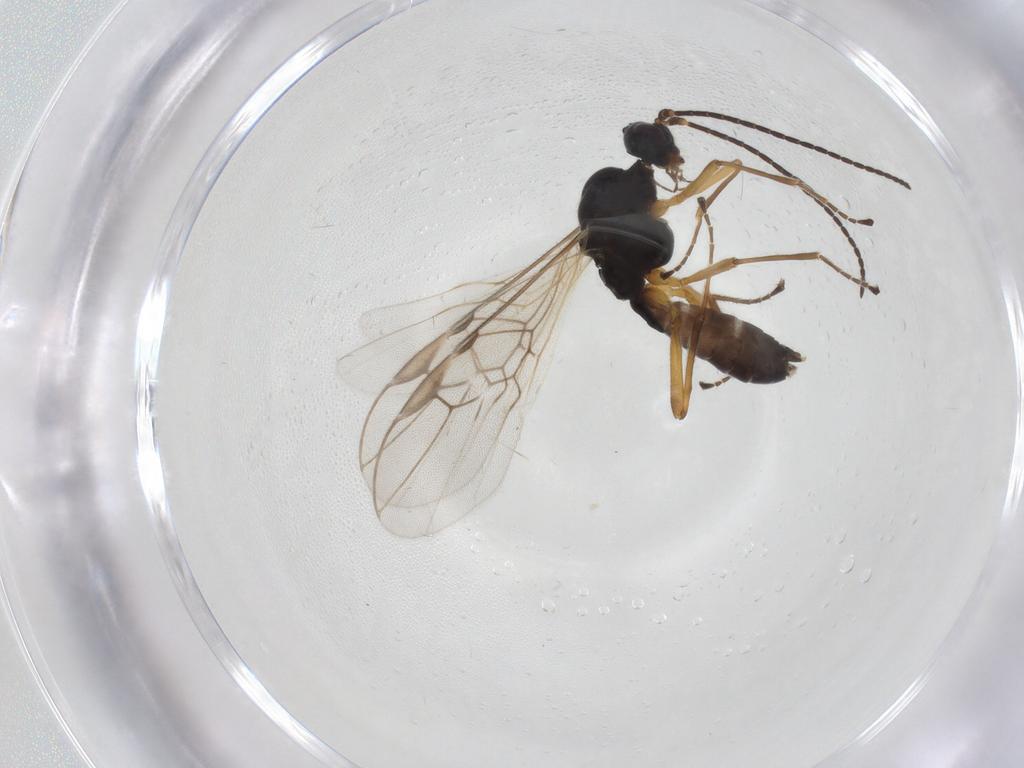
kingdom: Animalia
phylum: Arthropoda
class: Insecta
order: Hymenoptera
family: Braconidae
